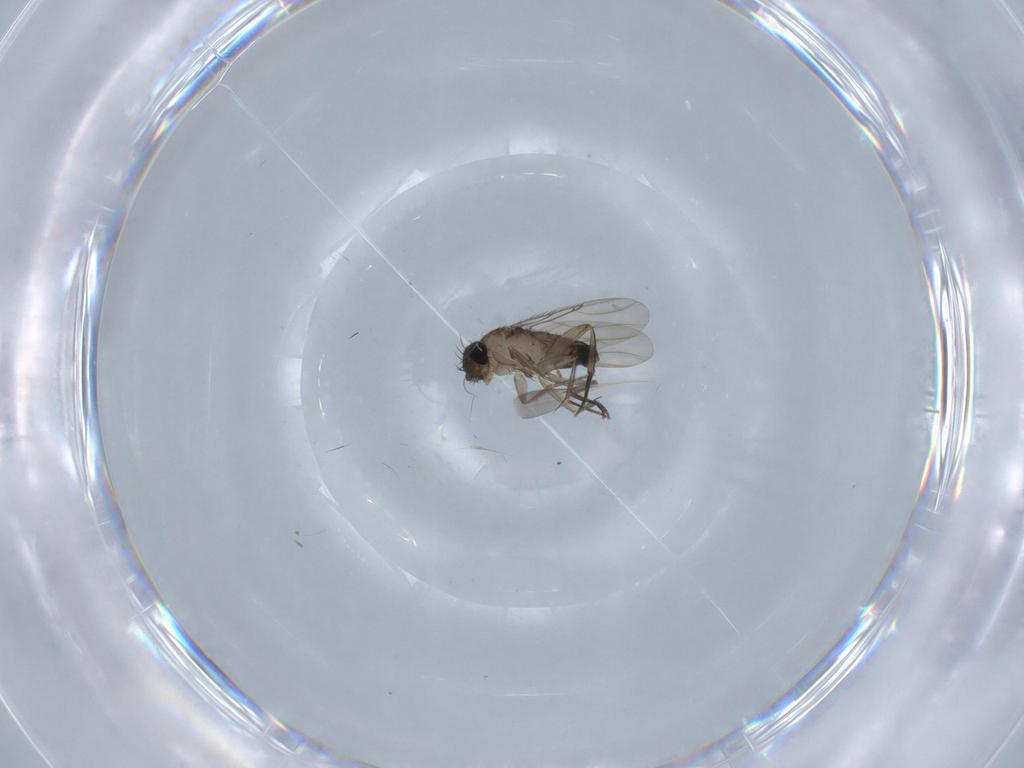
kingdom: Animalia
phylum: Arthropoda
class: Insecta
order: Diptera
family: Phoridae
